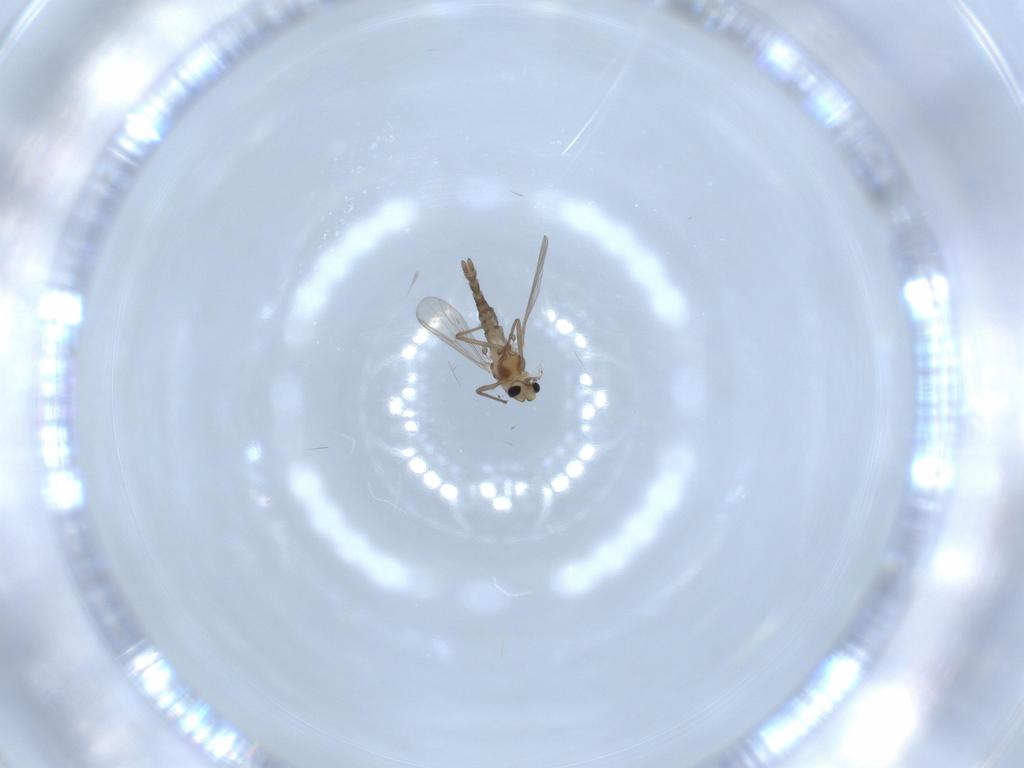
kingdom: Animalia
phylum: Arthropoda
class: Insecta
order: Diptera
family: Chironomidae
